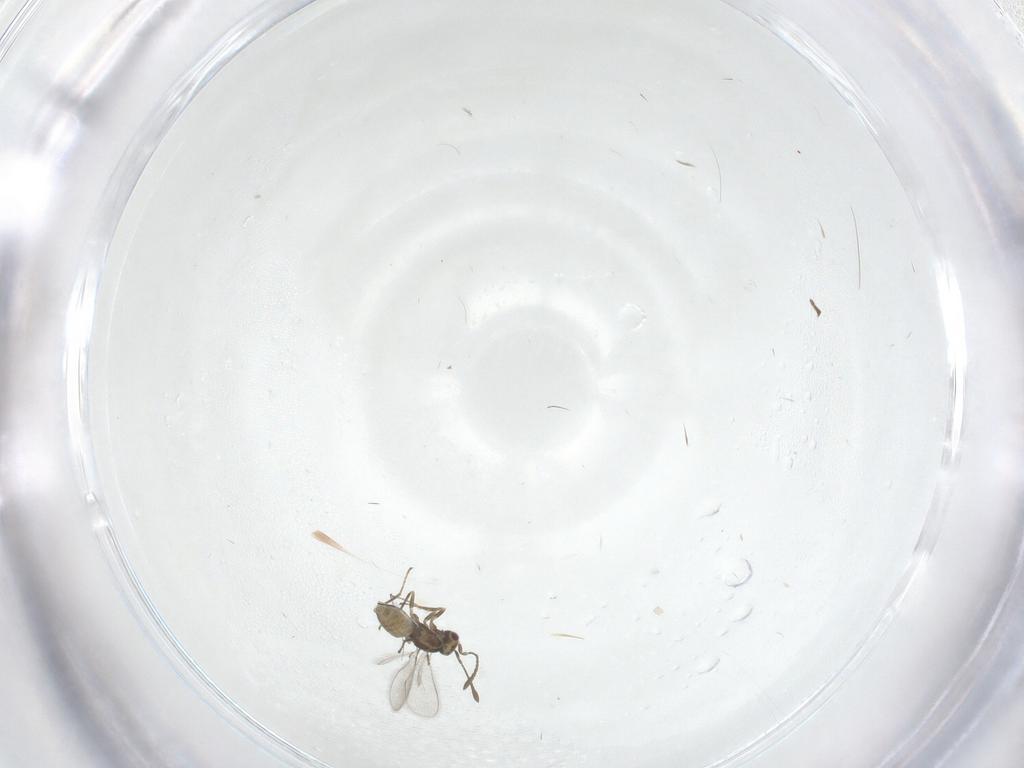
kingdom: Animalia
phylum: Arthropoda
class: Insecta
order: Hymenoptera
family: Mymaridae
